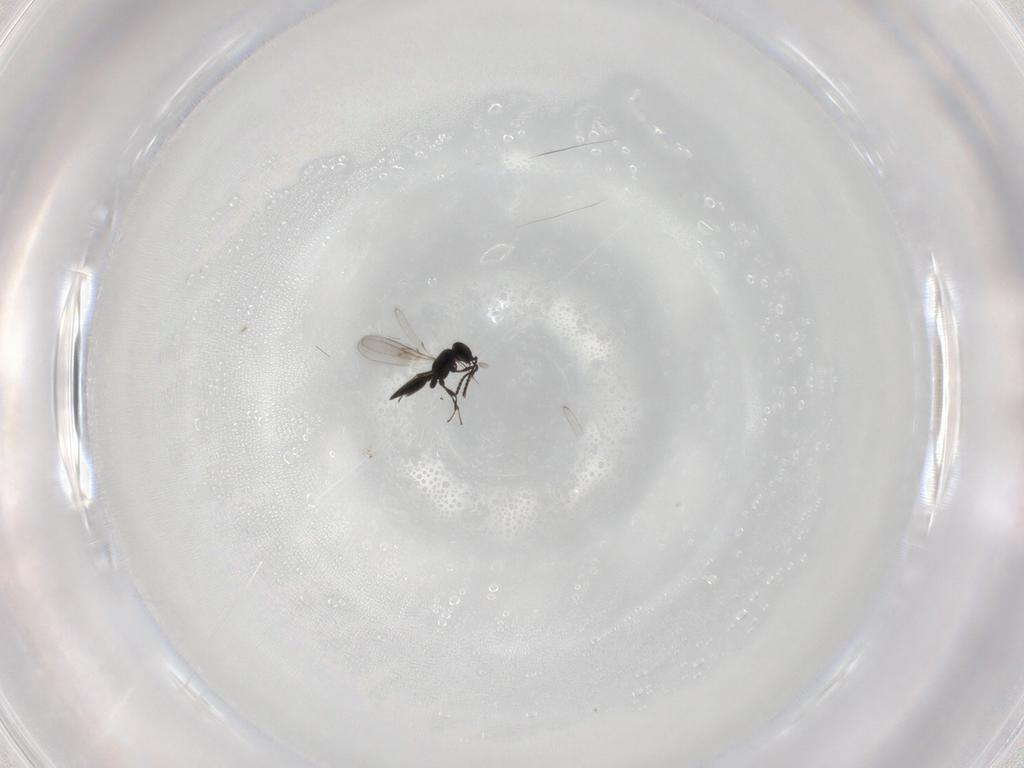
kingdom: Animalia
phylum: Arthropoda
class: Insecta
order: Hymenoptera
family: Scelionidae
